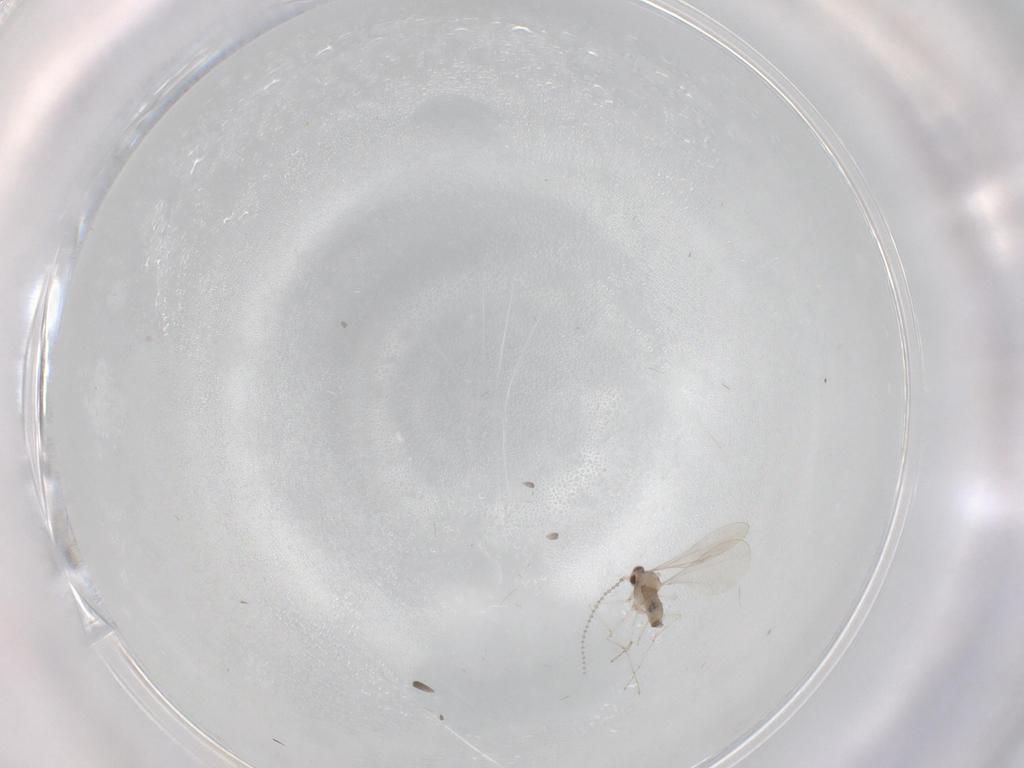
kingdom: Animalia
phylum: Arthropoda
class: Insecta
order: Diptera
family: Cecidomyiidae
